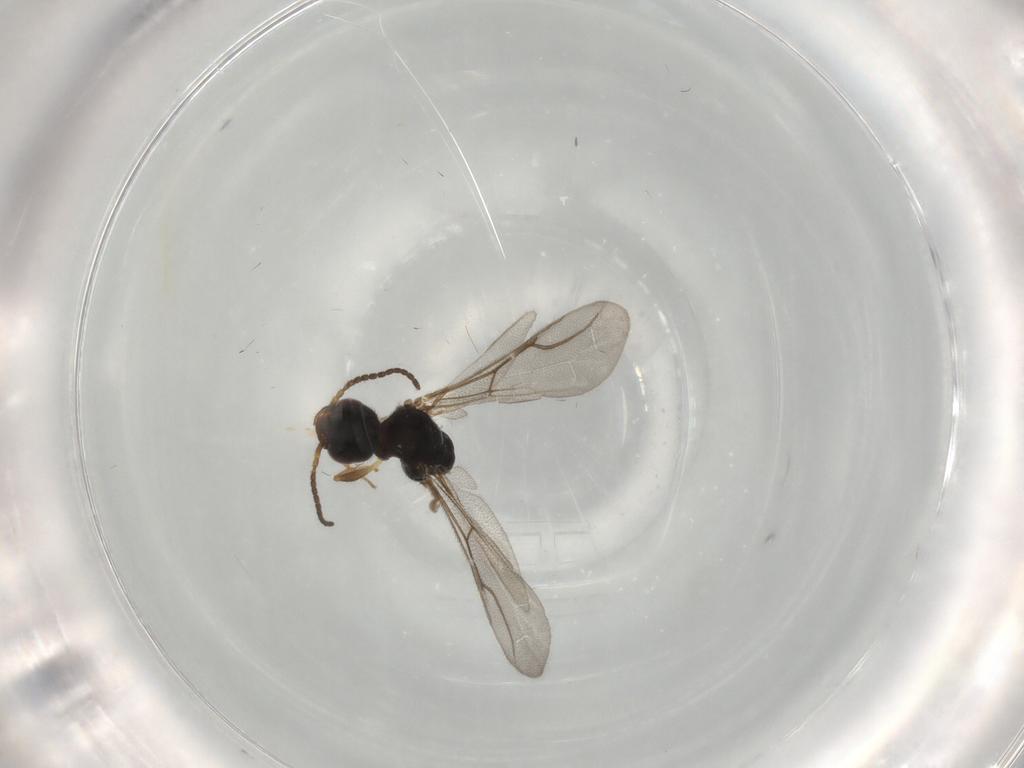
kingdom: Animalia
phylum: Arthropoda
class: Insecta
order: Hymenoptera
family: Bethylidae
